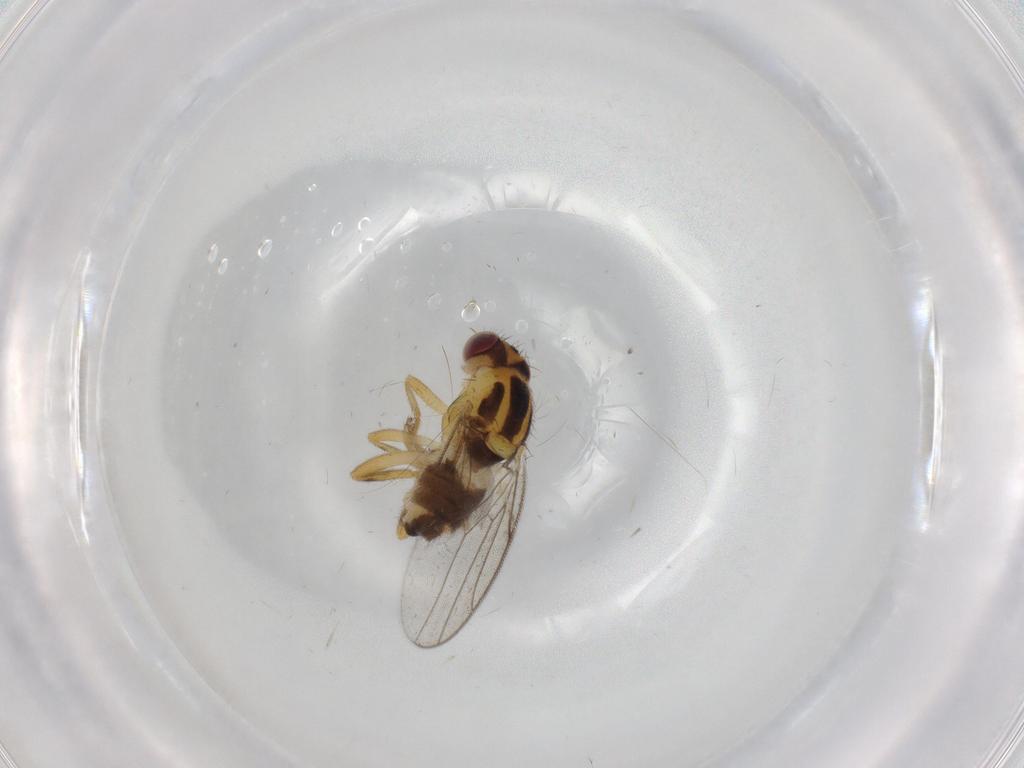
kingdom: Animalia
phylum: Arthropoda
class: Insecta
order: Diptera
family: Chloropidae
